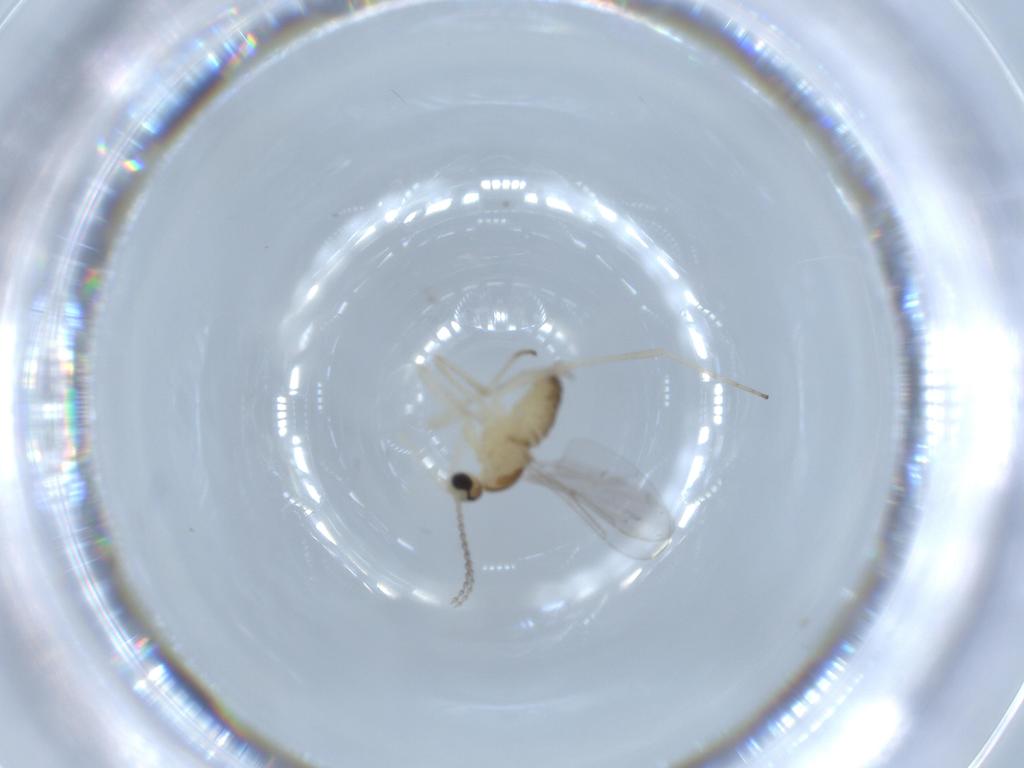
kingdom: Animalia
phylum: Arthropoda
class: Insecta
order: Diptera
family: Cecidomyiidae
